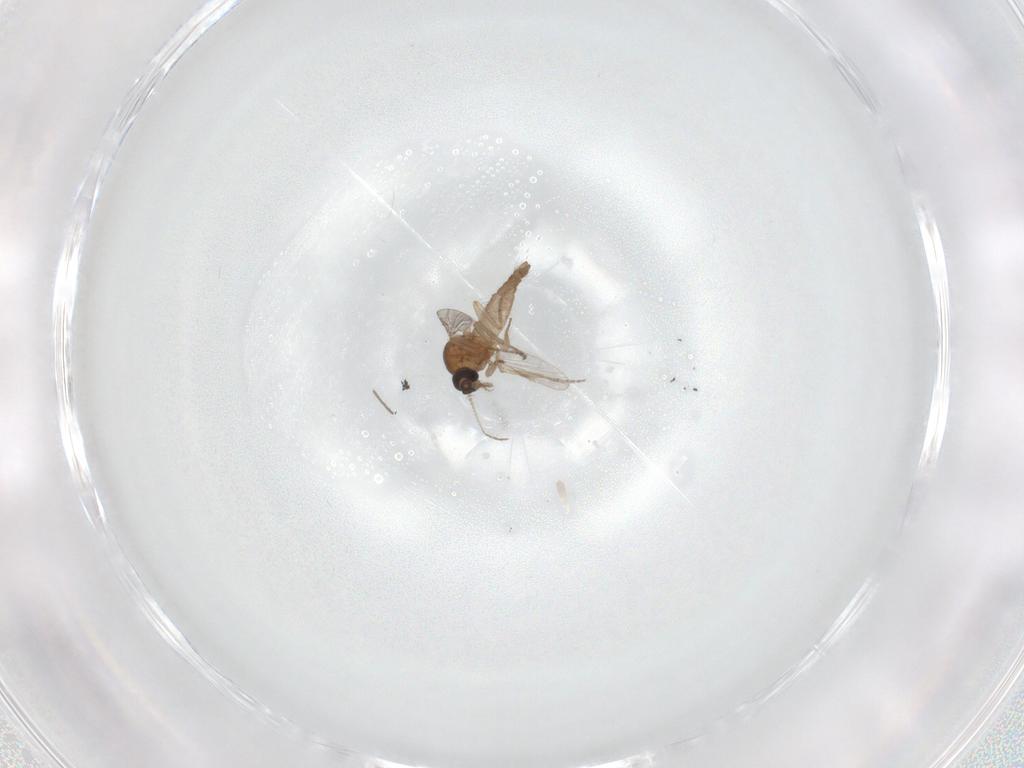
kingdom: Animalia
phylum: Arthropoda
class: Insecta
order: Diptera
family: Chironomidae
